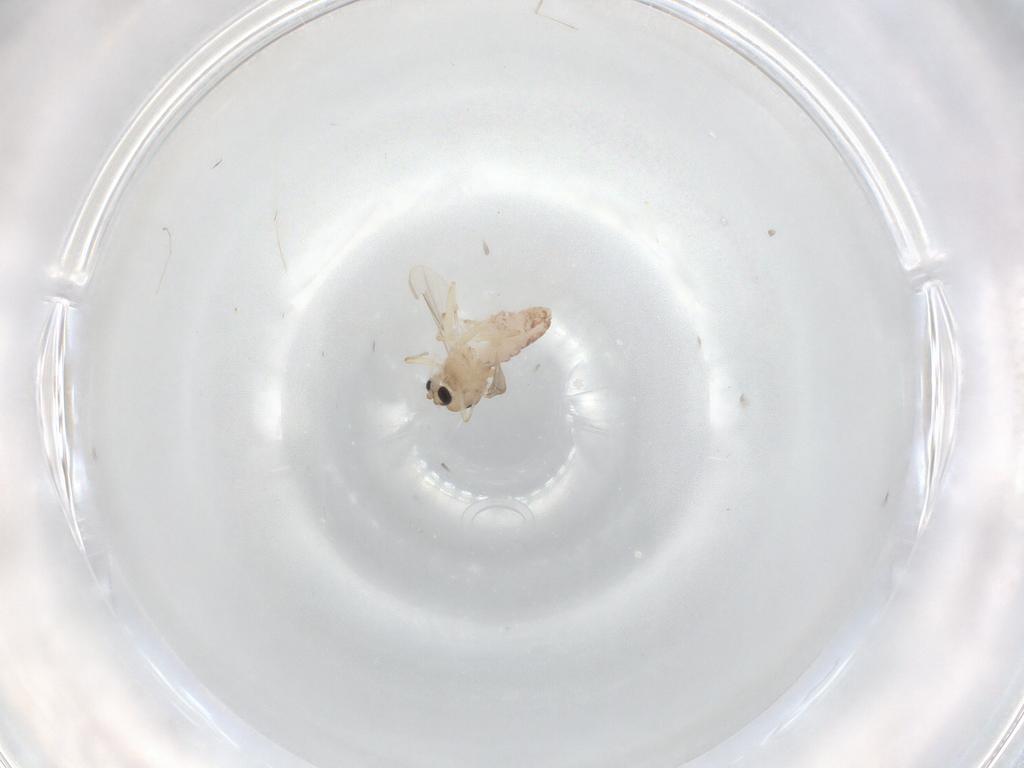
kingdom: Animalia
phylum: Arthropoda
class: Insecta
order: Diptera
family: Chironomidae
